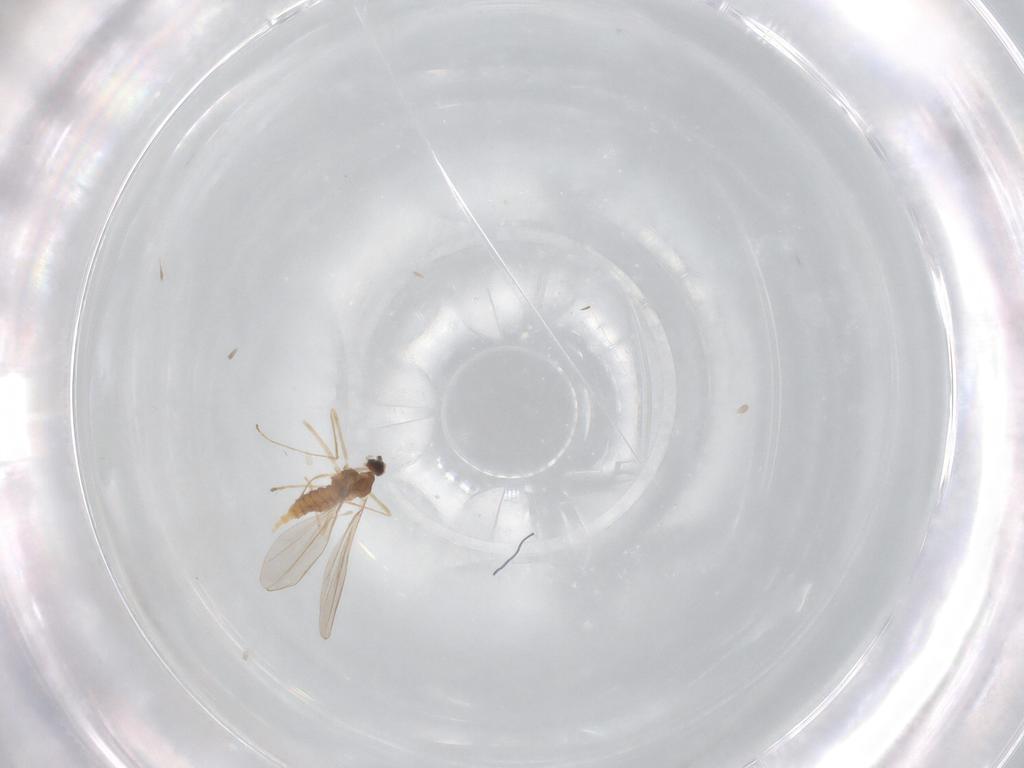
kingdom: Animalia
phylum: Arthropoda
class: Insecta
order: Diptera
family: Cecidomyiidae
